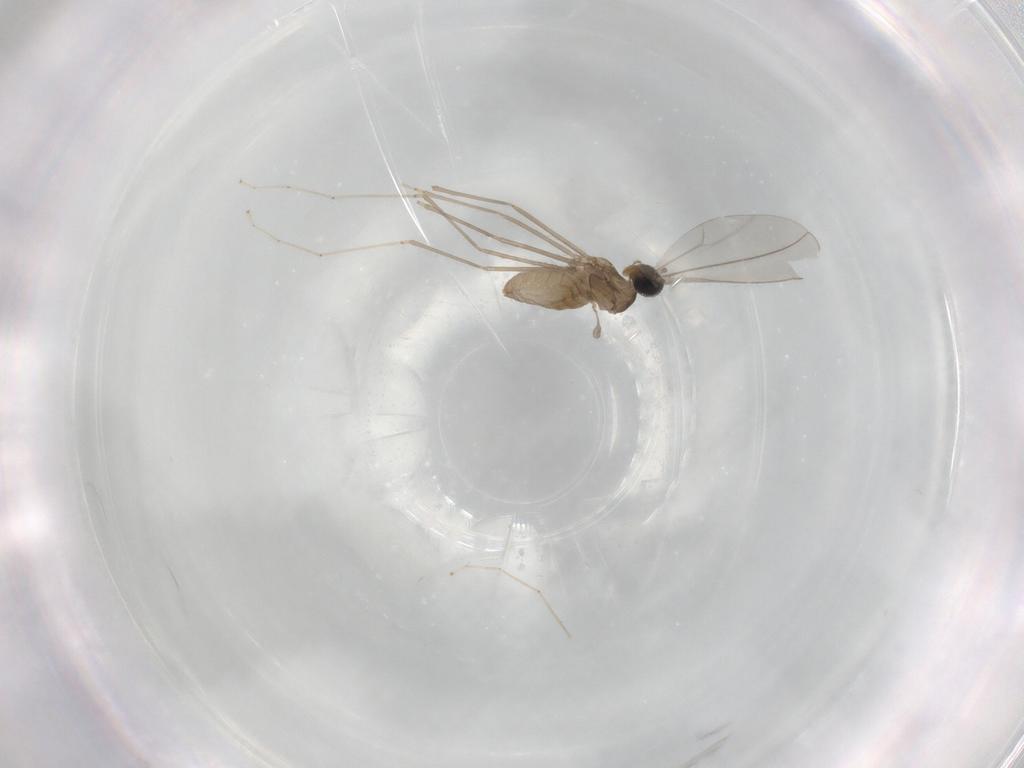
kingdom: Animalia
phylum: Arthropoda
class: Insecta
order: Diptera
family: Cecidomyiidae
